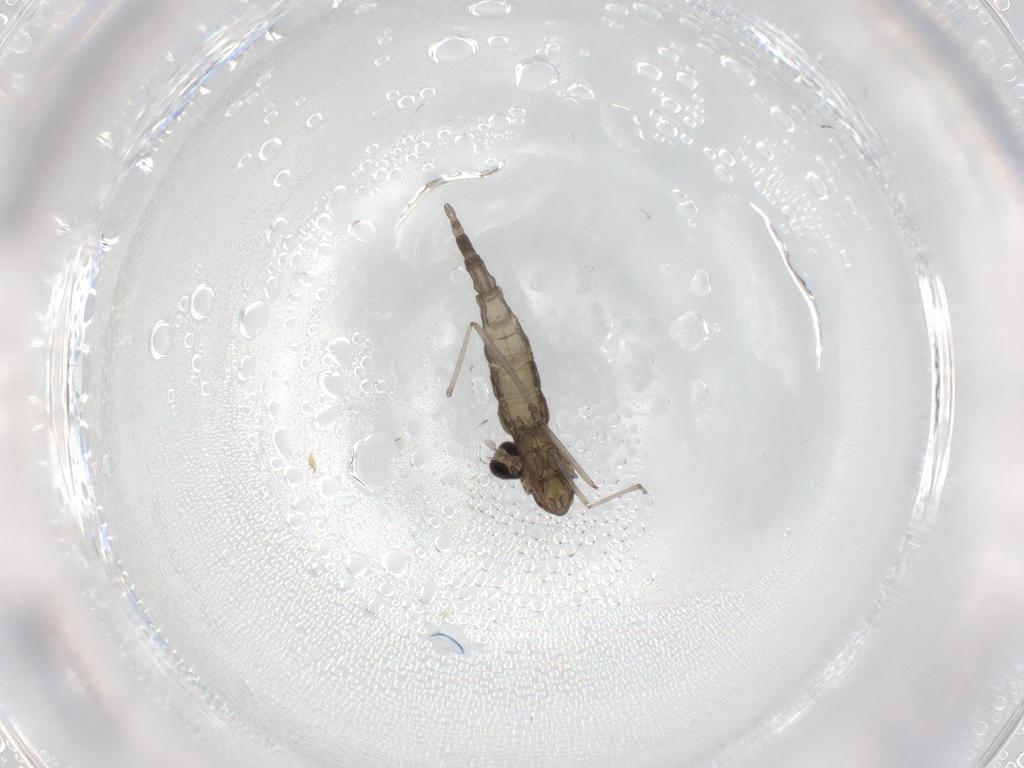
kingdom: Animalia
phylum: Arthropoda
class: Insecta
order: Diptera
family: Cecidomyiidae
